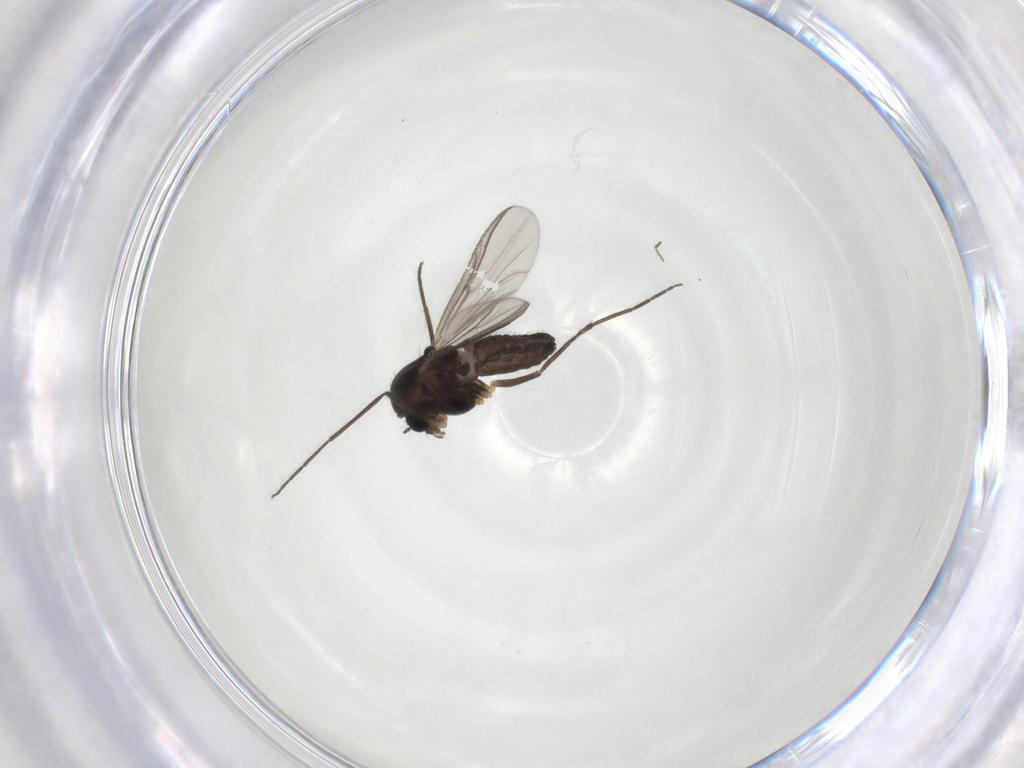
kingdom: Animalia
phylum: Arthropoda
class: Insecta
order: Diptera
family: Chironomidae
